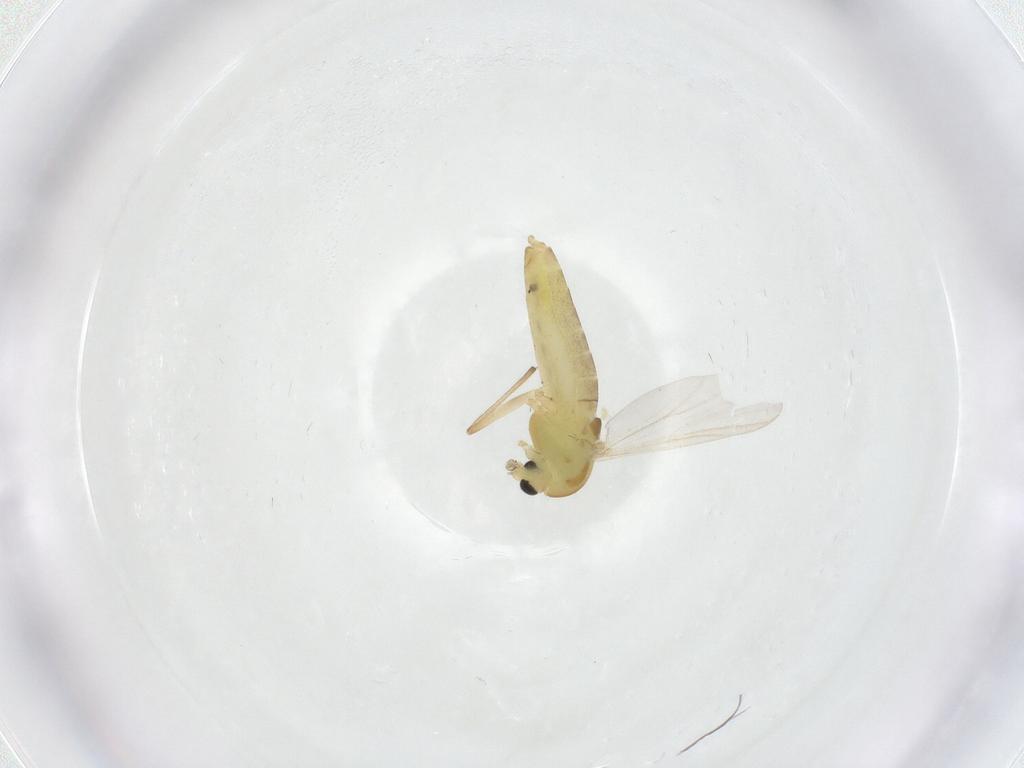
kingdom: Animalia
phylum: Arthropoda
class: Insecta
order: Diptera
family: Chironomidae
